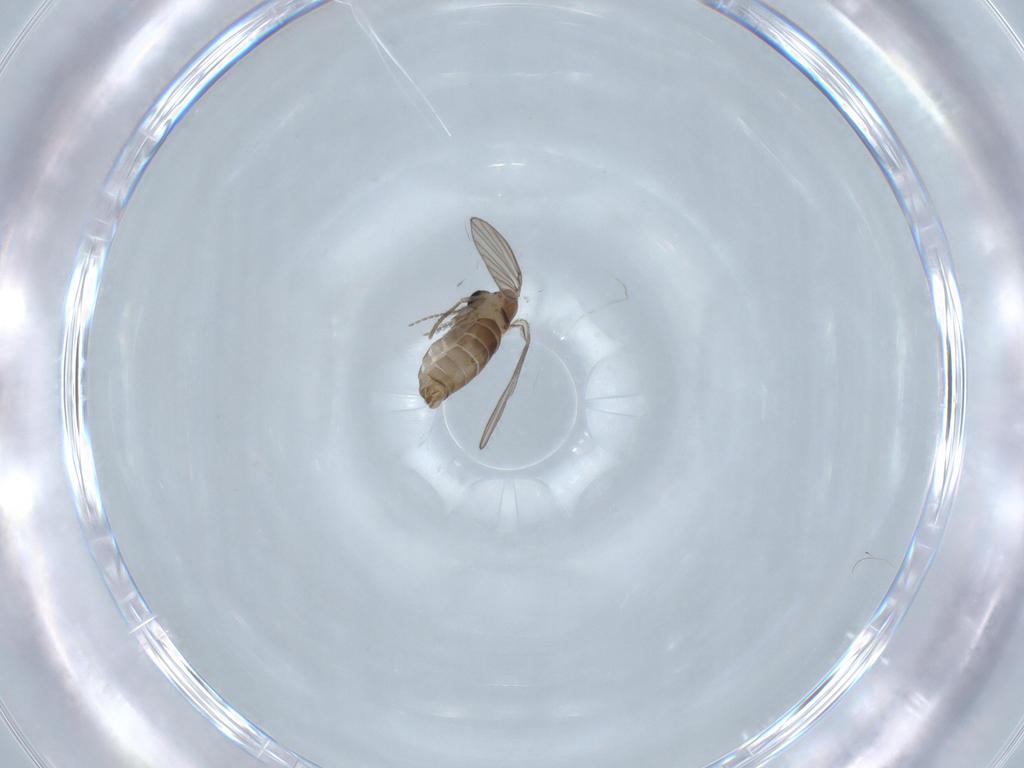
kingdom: Animalia
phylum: Arthropoda
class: Insecta
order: Diptera
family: Psychodidae
